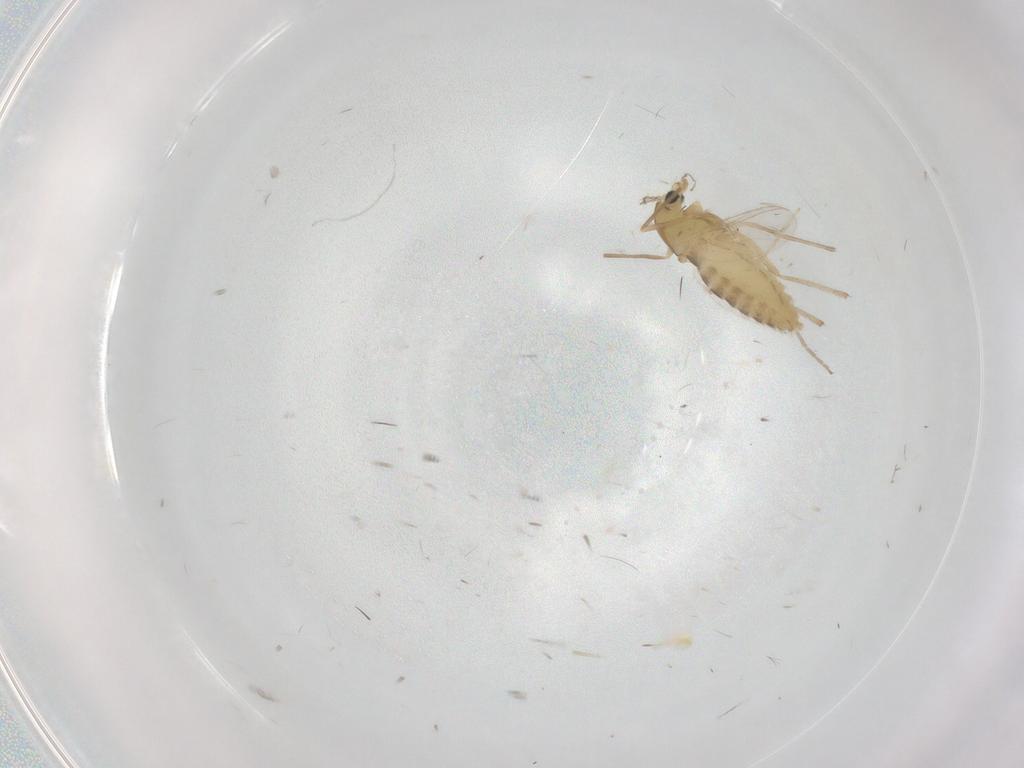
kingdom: Animalia
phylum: Arthropoda
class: Insecta
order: Diptera
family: Chironomidae
